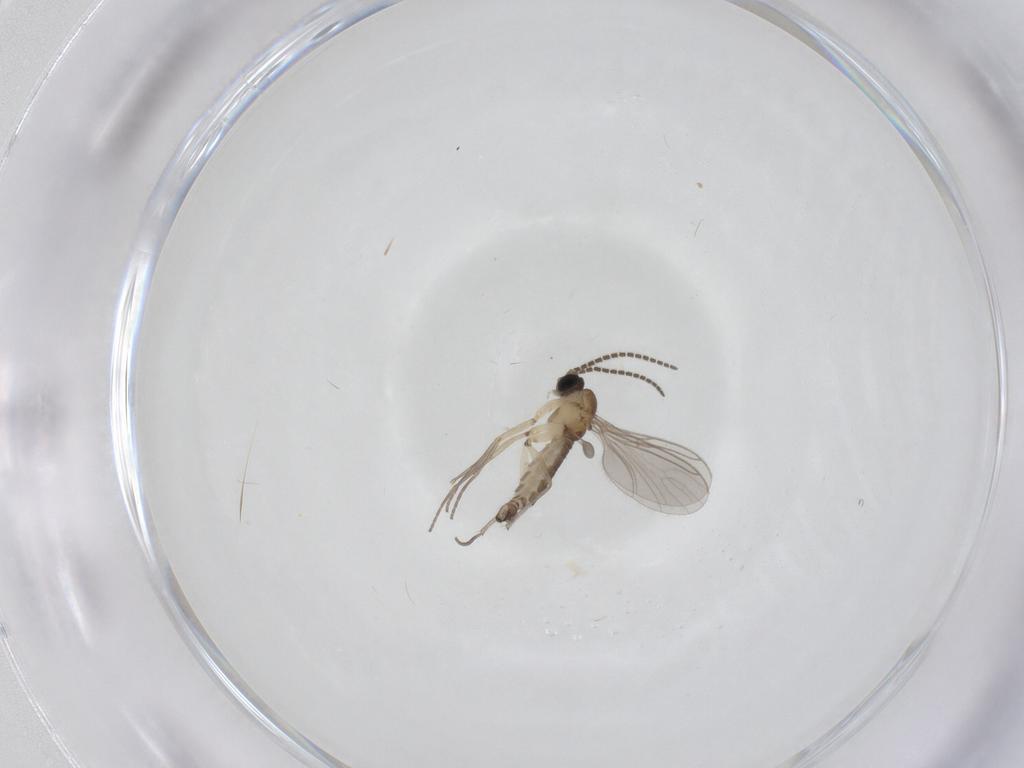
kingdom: Animalia
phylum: Arthropoda
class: Insecta
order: Diptera
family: Cecidomyiidae
